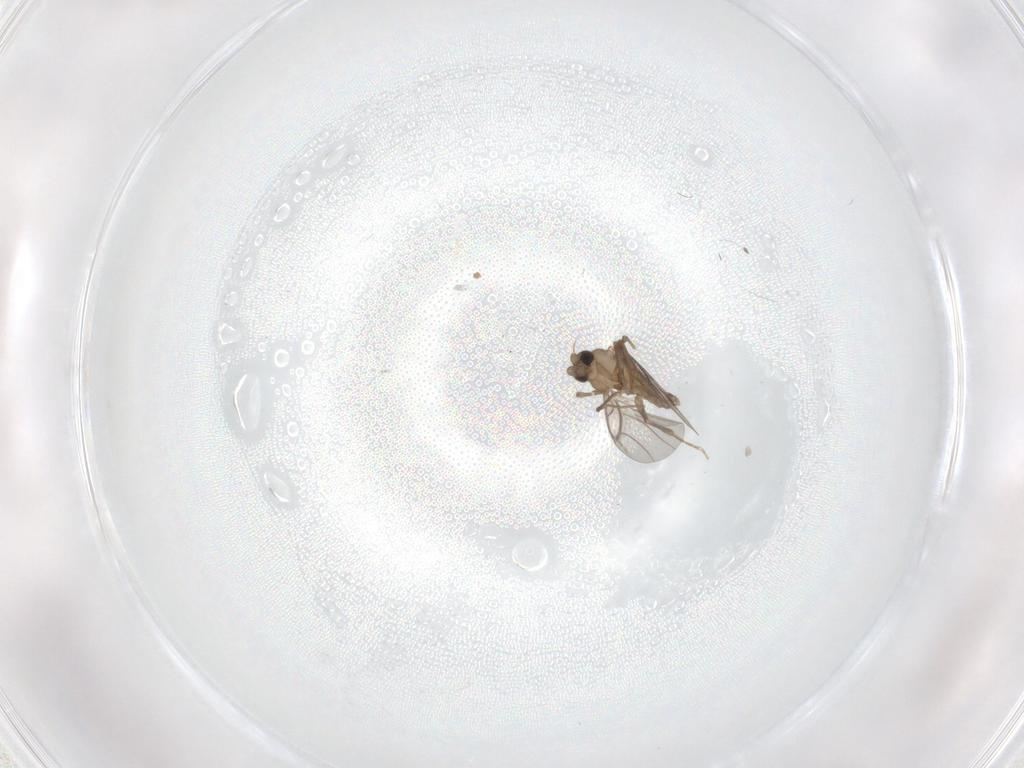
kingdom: Animalia
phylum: Arthropoda
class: Insecta
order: Diptera
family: Ceratopogonidae
